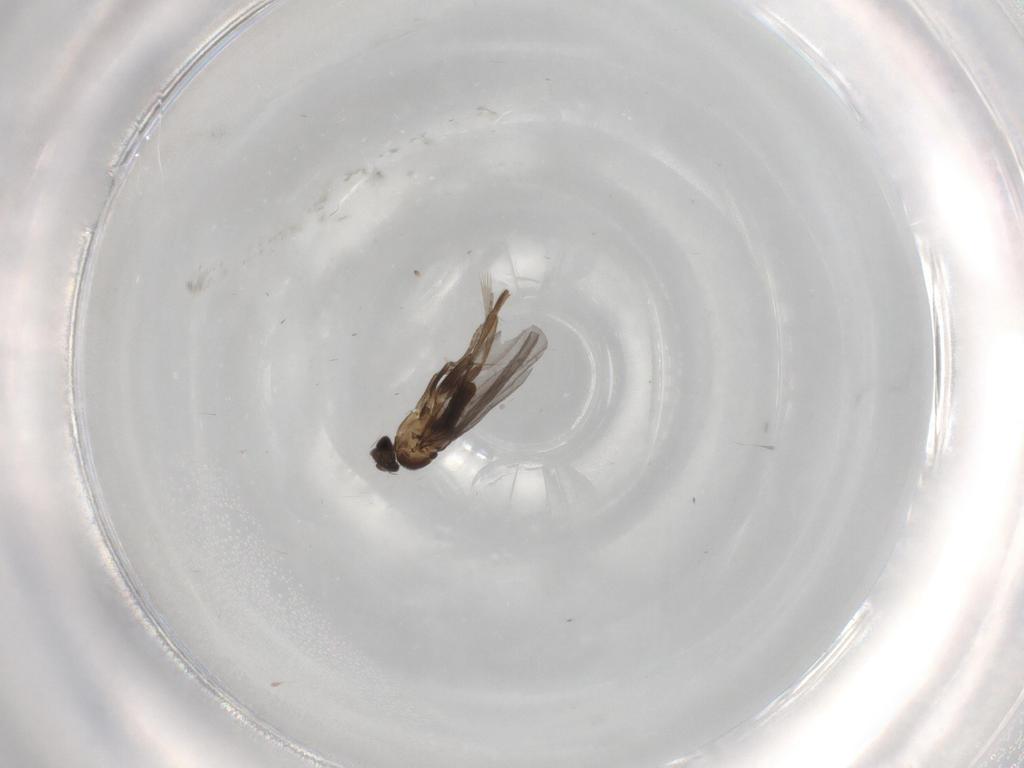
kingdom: Animalia
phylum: Arthropoda
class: Insecta
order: Diptera
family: Phoridae
